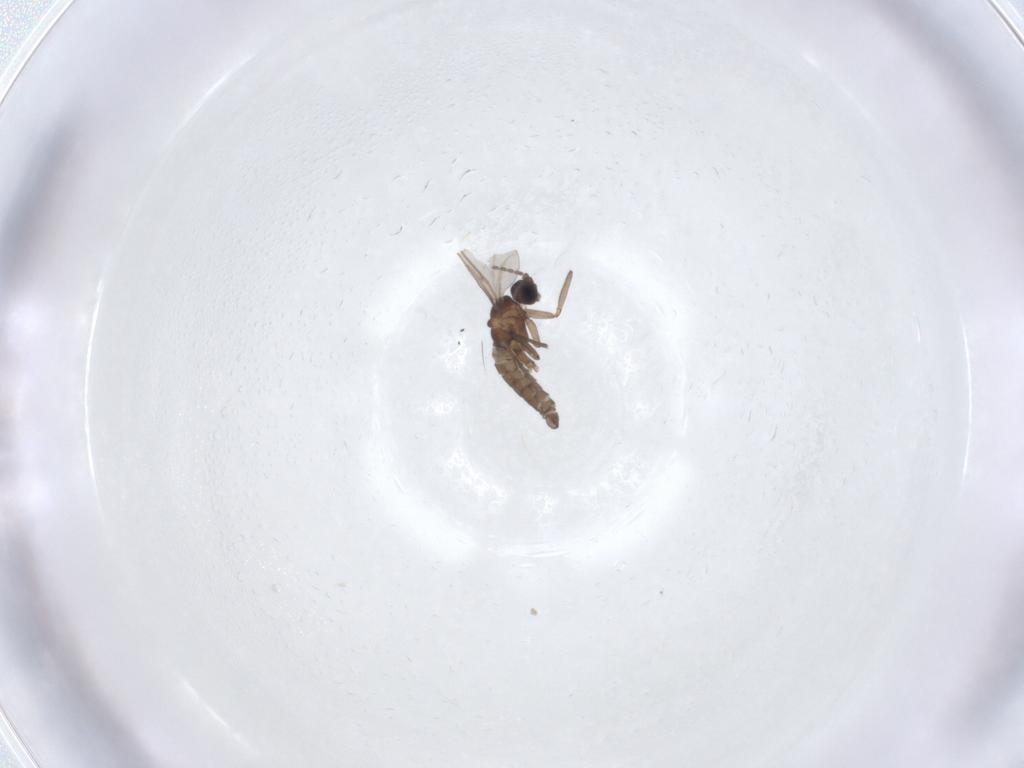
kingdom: Animalia
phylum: Arthropoda
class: Insecta
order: Diptera
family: Sciaridae
